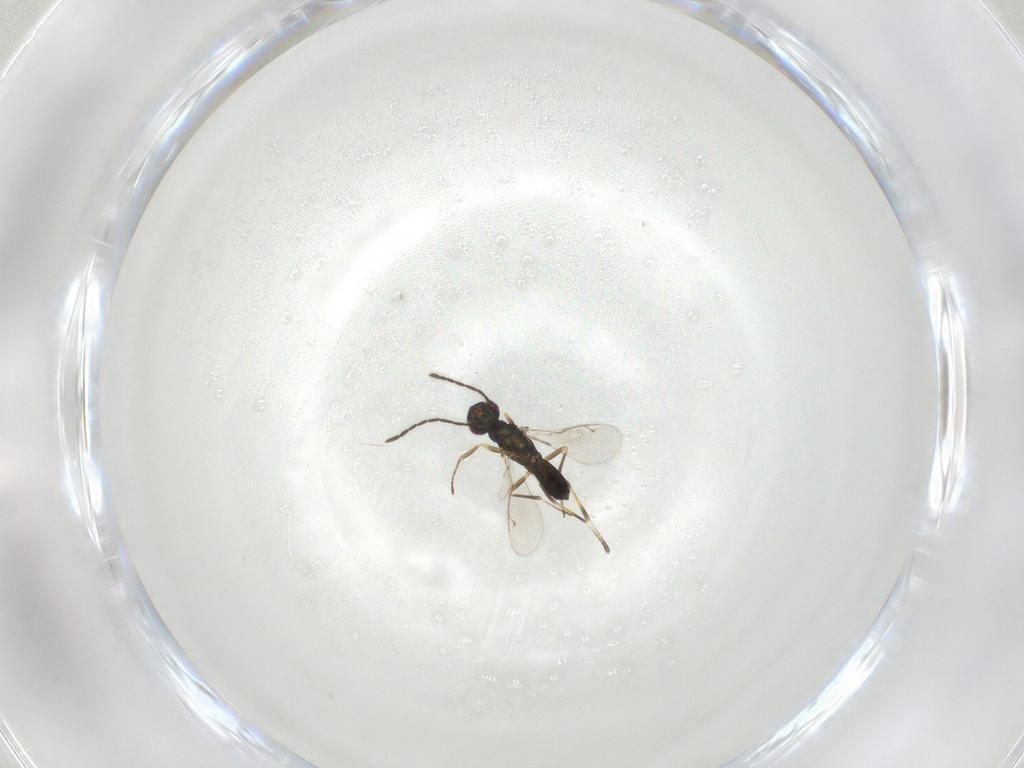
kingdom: Animalia
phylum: Arthropoda
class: Insecta
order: Hymenoptera
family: Eupelmidae
